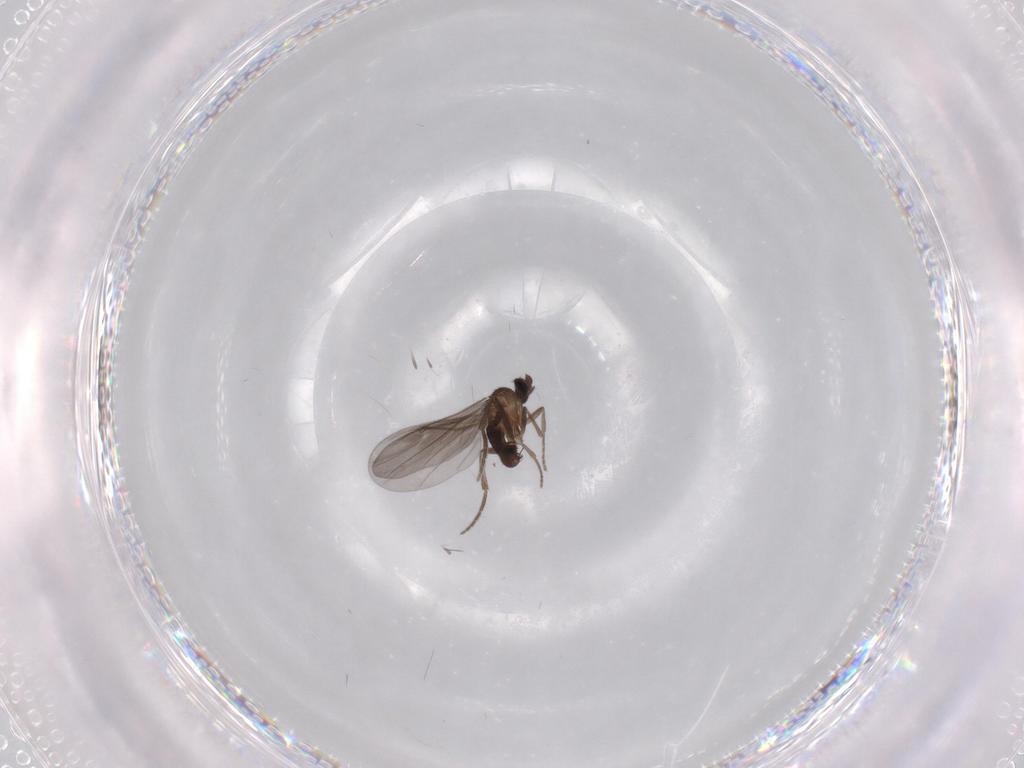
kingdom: Animalia
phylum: Arthropoda
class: Insecta
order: Diptera
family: Phoridae
